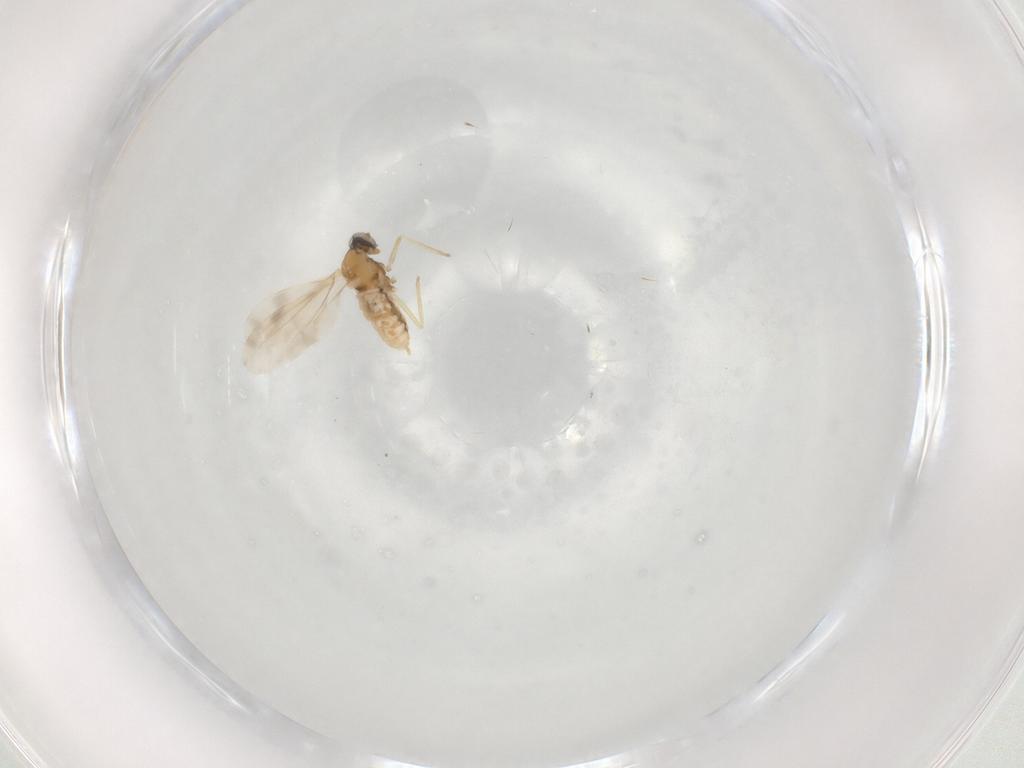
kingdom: Animalia
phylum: Arthropoda
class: Insecta
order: Diptera
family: Cecidomyiidae
